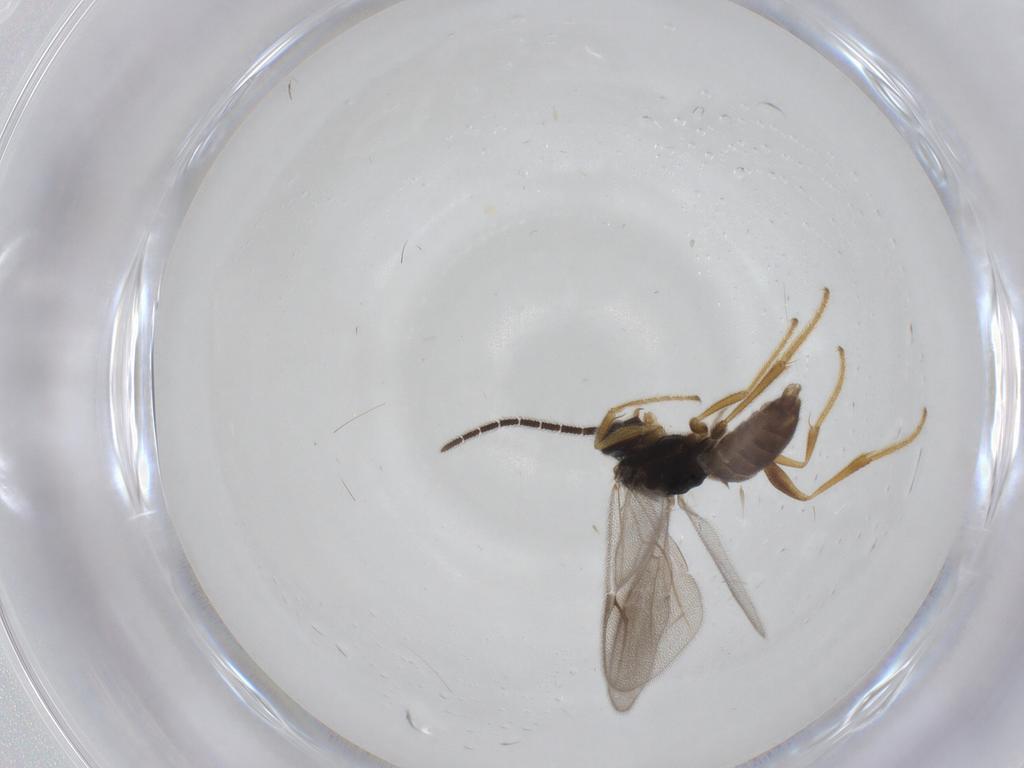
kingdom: Animalia
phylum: Arthropoda
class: Insecta
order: Hymenoptera
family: Dryinidae
